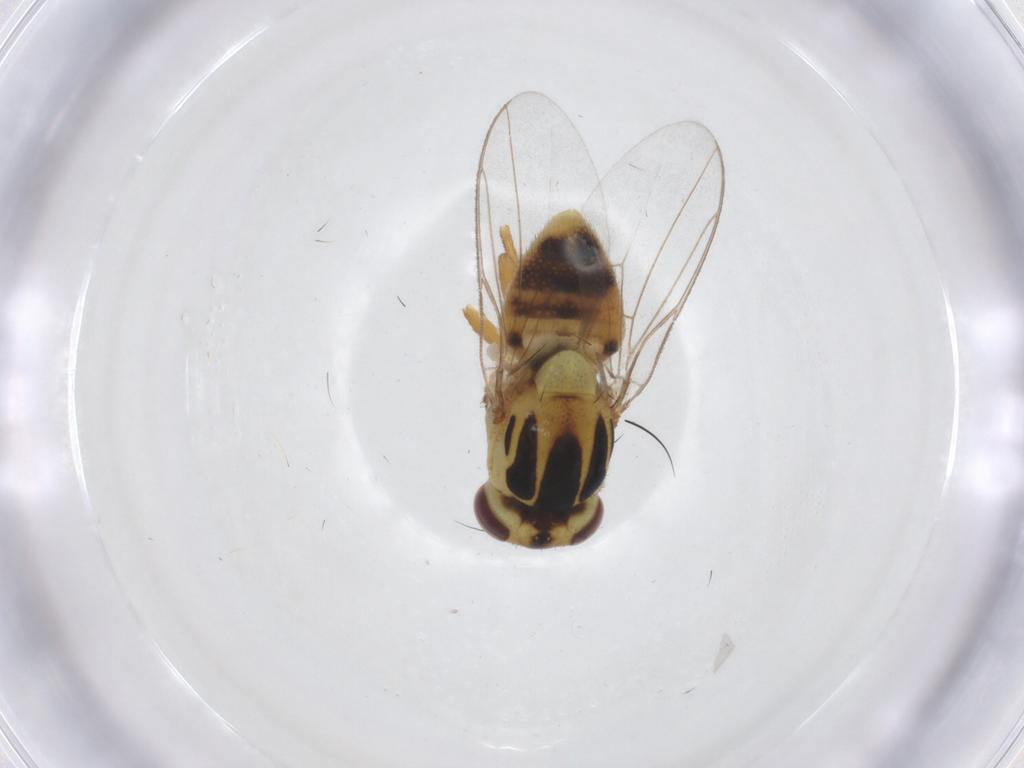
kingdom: Animalia
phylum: Arthropoda
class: Insecta
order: Diptera
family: Chloropidae
